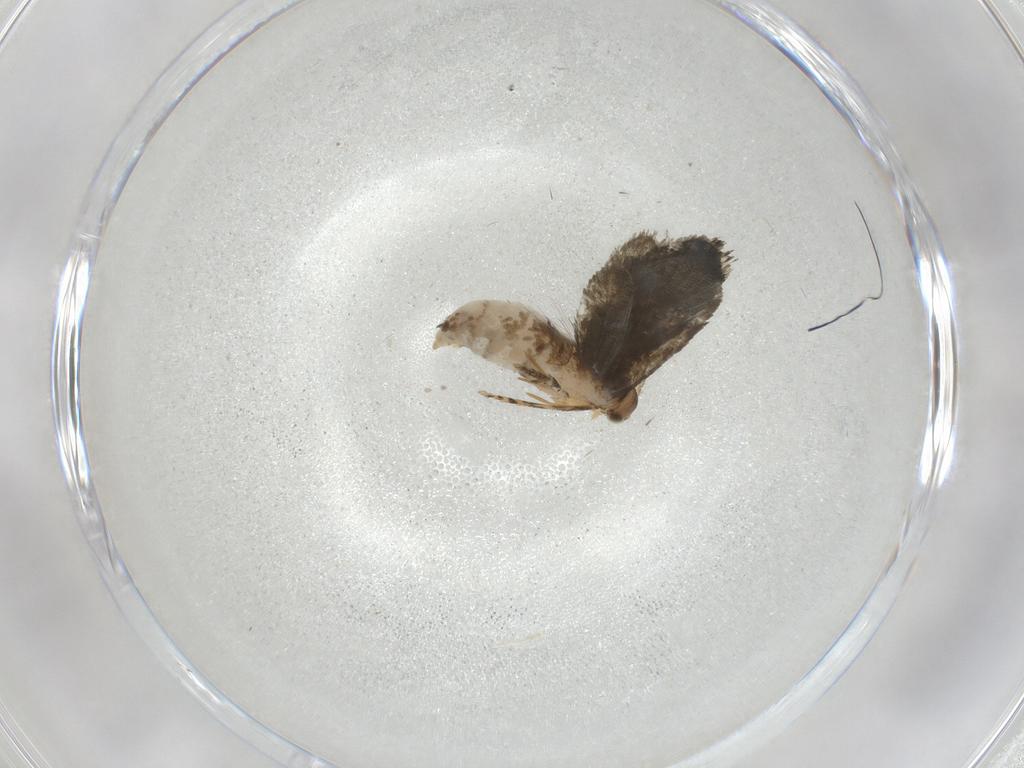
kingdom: Animalia
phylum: Arthropoda
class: Insecta
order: Lepidoptera
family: Tineidae
